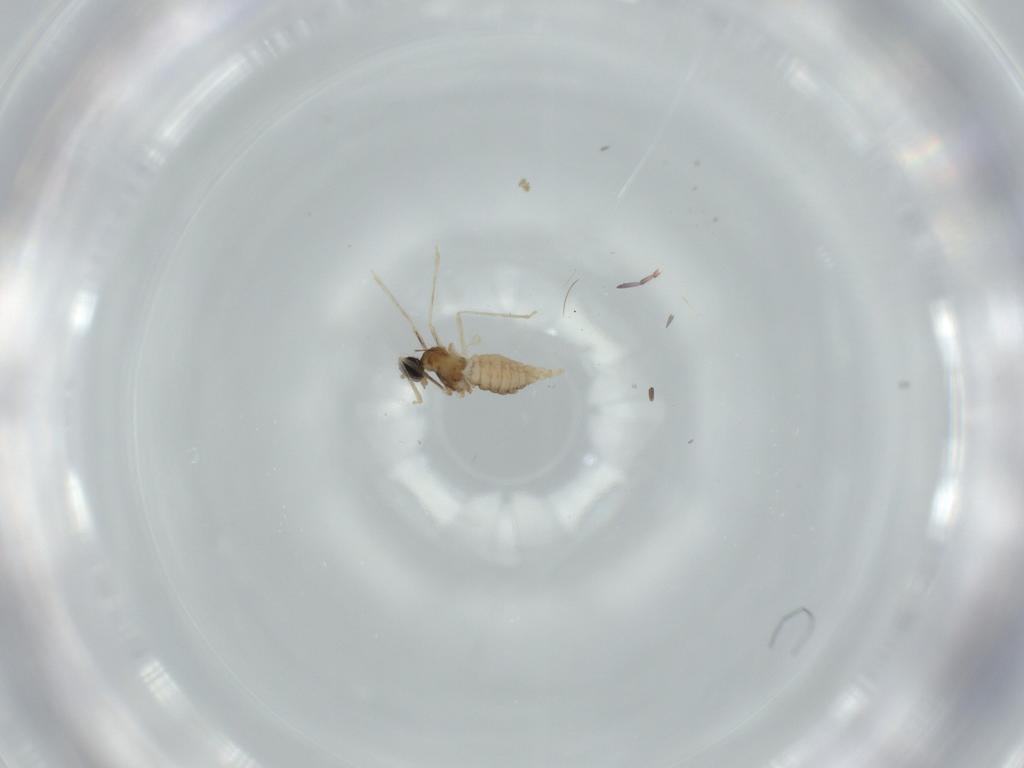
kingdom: Animalia
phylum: Arthropoda
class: Insecta
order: Diptera
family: Cecidomyiidae
